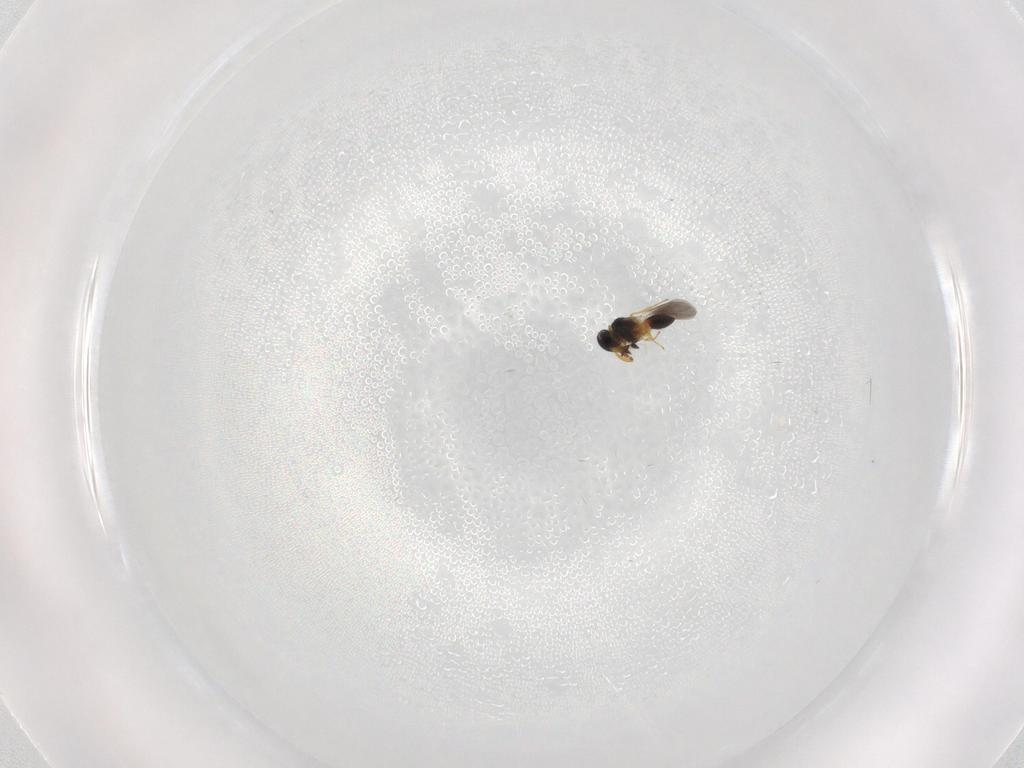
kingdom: Animalia
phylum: Arthropoda
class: Insecta
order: Hymenoptera
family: Platygastridae
